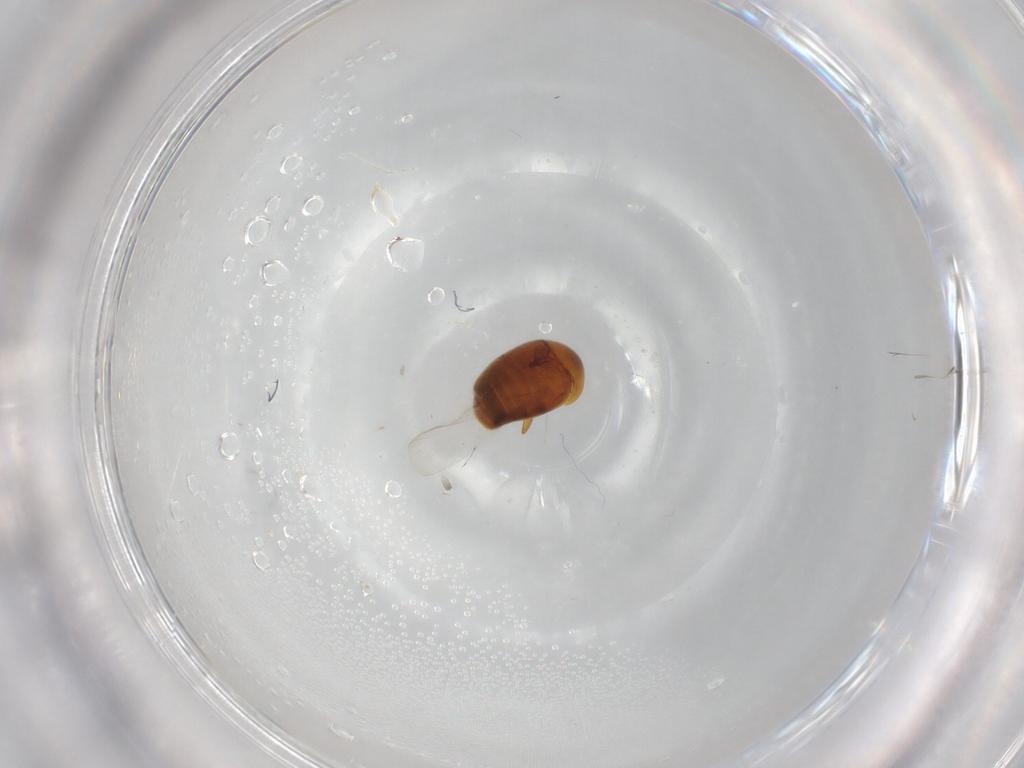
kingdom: Animalia
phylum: Arthropoda
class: Insecta
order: Coleoptera
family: Corylophidae
